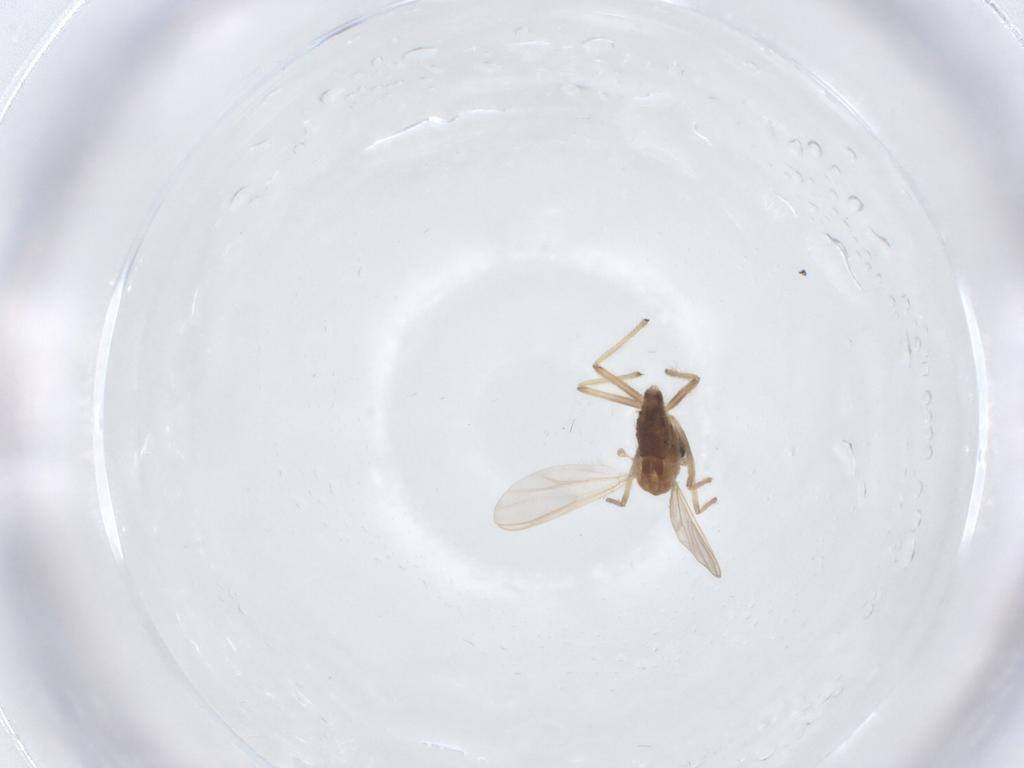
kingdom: Animalia
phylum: Arthropoda
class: Insecta
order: Diptera
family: Chironomidae
